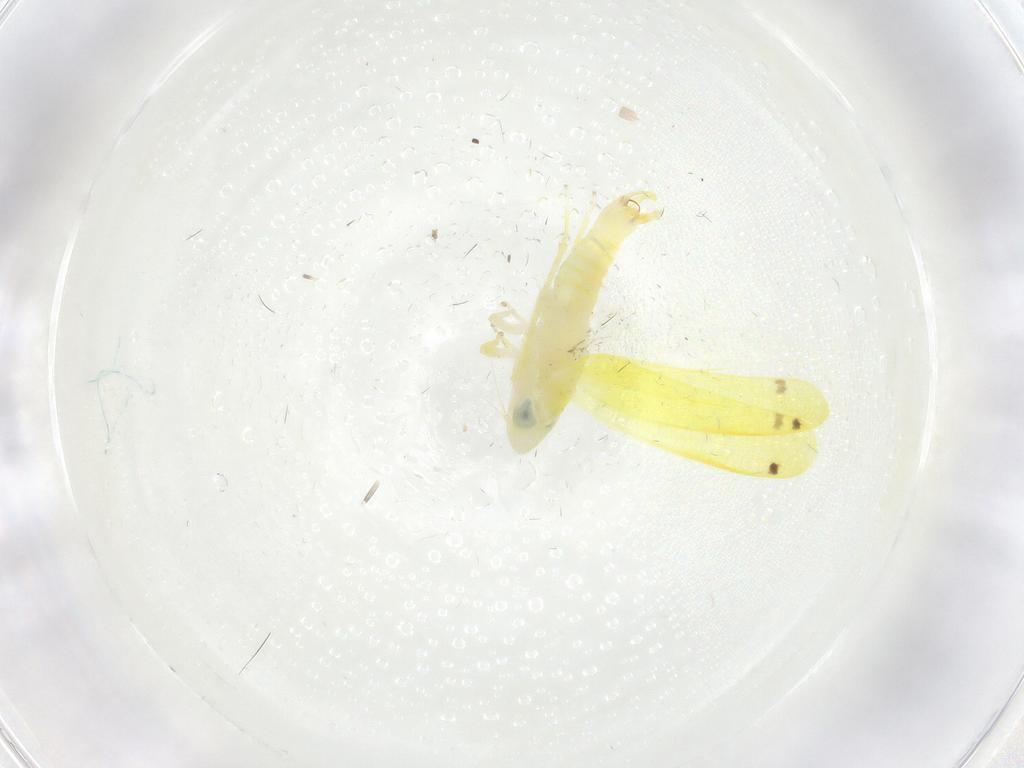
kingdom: Animalia
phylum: Arthropoda
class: Insecta
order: Hemiptera
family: Cicadellidae
